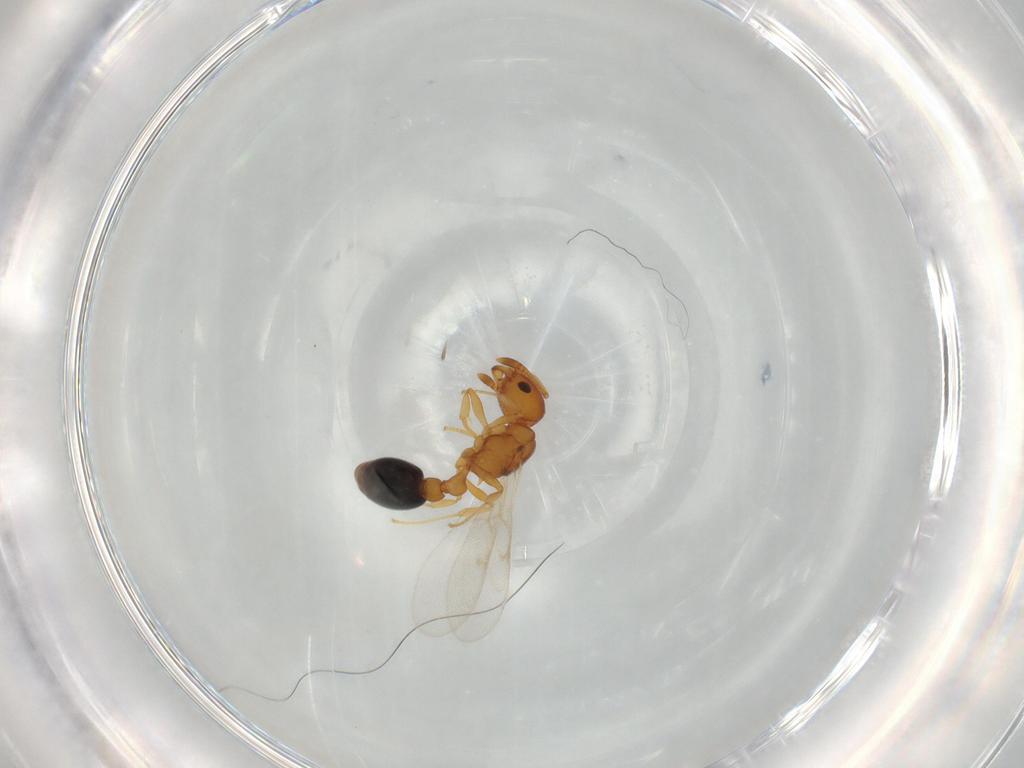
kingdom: Animalia
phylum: Arthropoda
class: Insecta
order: Hymenoptera
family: Formicidae
